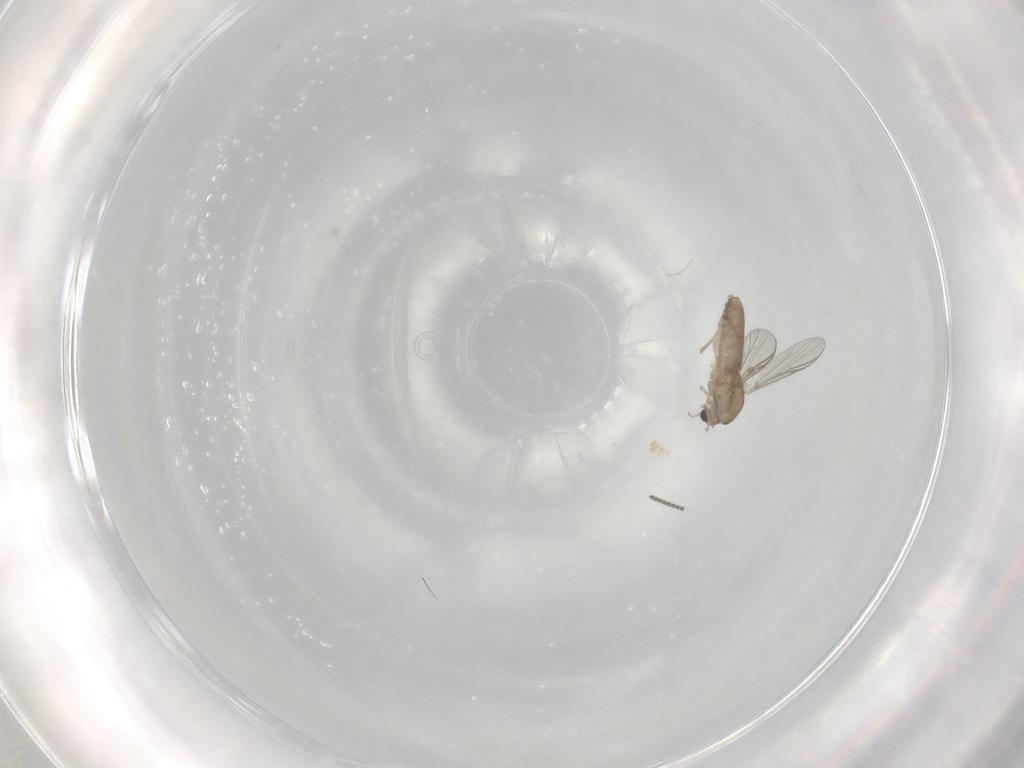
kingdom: Animalia
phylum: Arthropoda
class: Insecta
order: Diptera
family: Chironomidae
